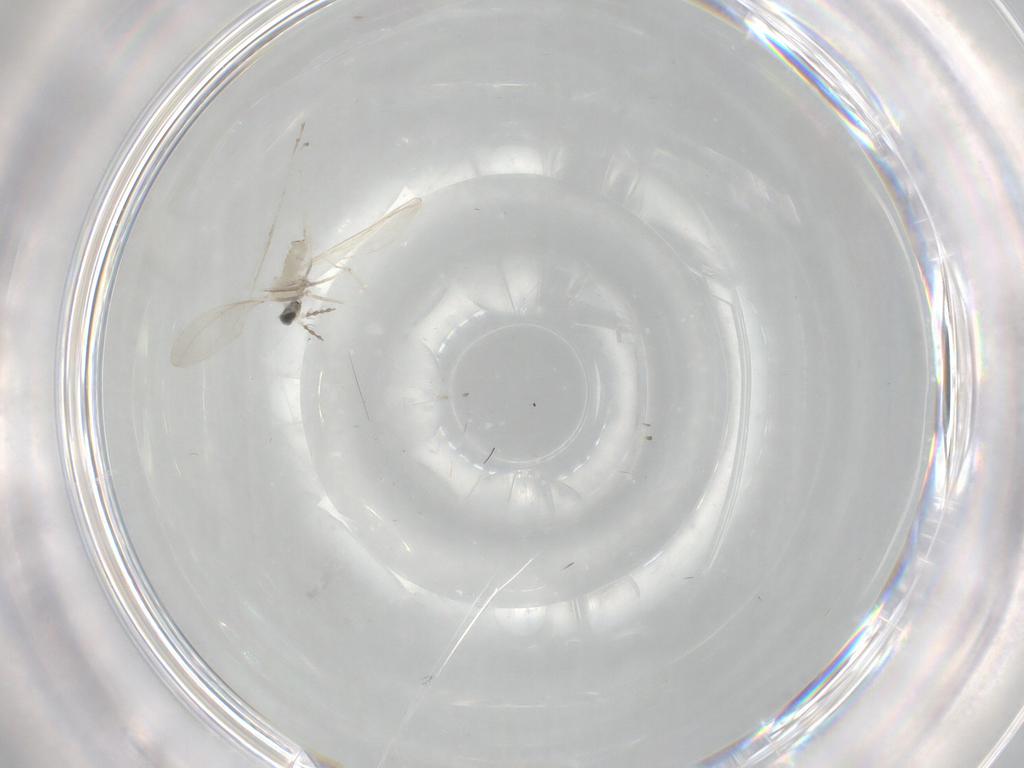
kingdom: Animalia
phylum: Arthropoda
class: Insecta
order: Diptera
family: Cecidomyiidae
